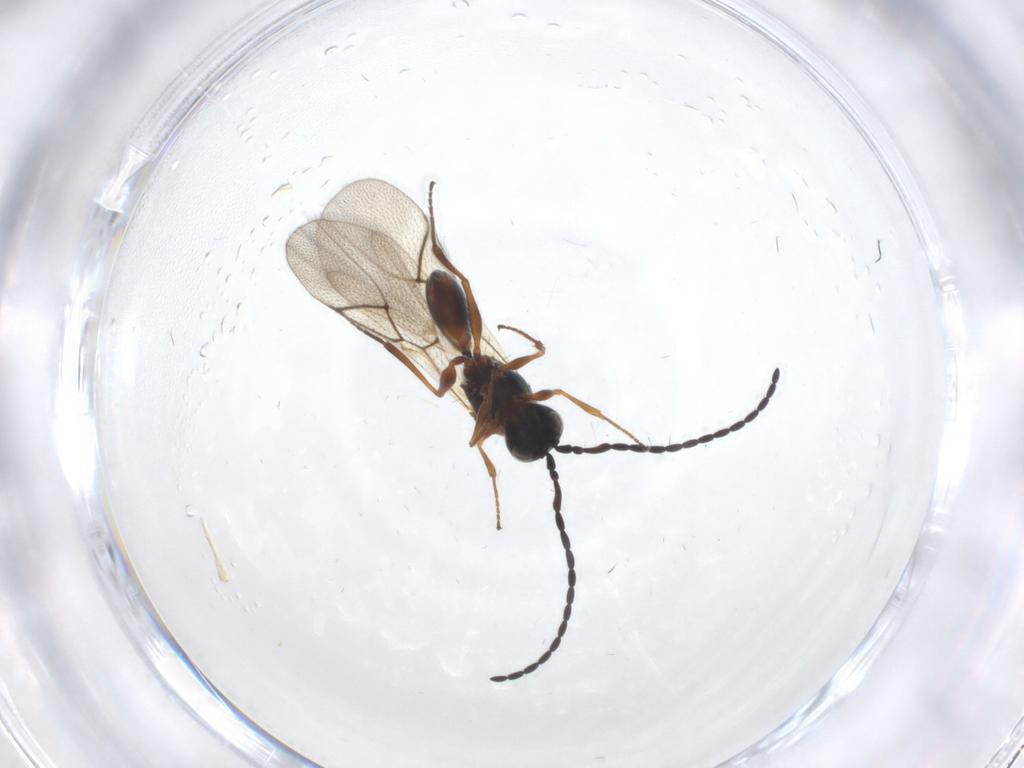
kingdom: Animalia
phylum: Arthropoda
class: Insecta
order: Hymenoptera
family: Figitidae
